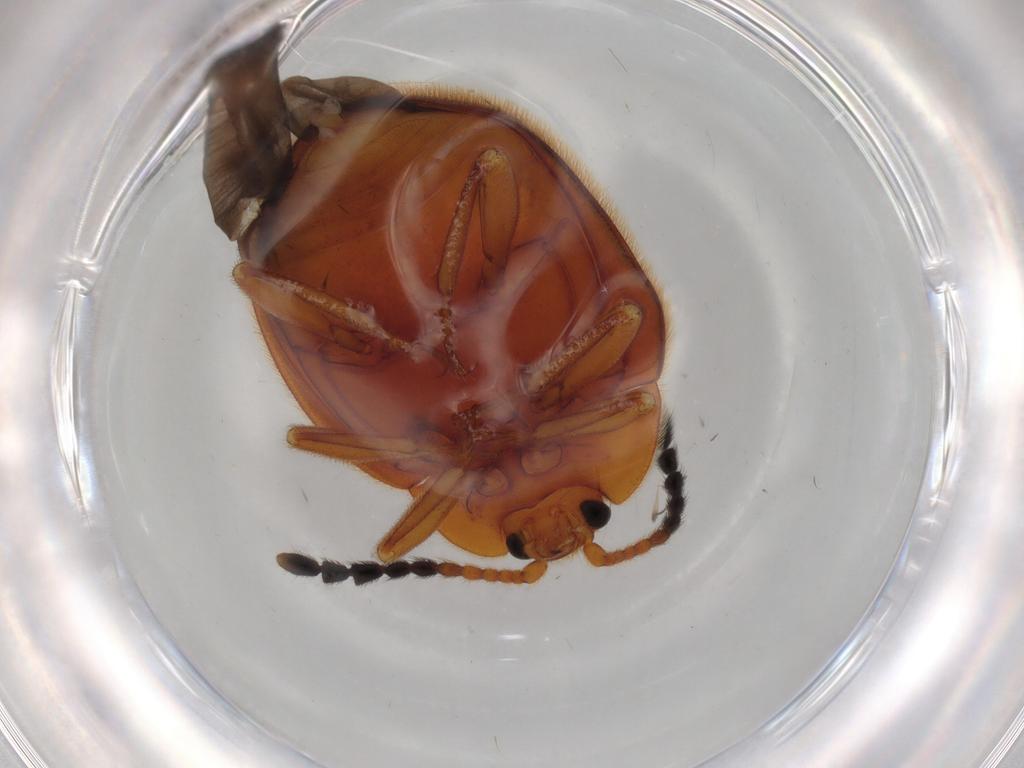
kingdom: Animalia
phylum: Arthropoda
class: Insecta
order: Coleoptera
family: Endomychidae
